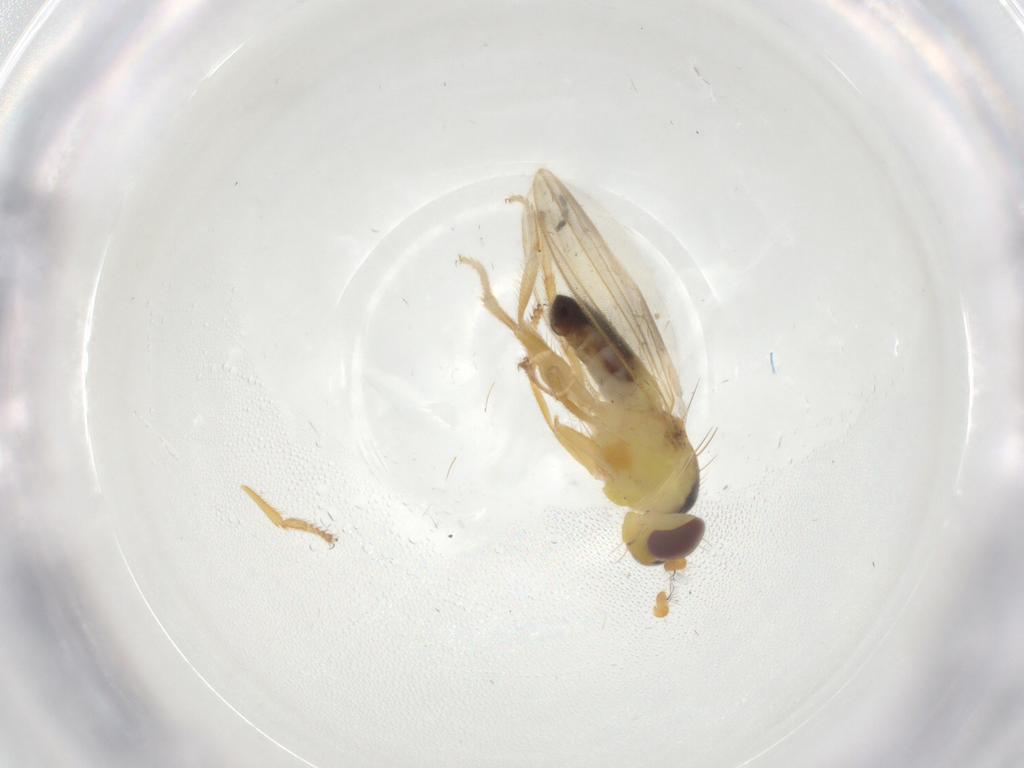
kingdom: Animalia
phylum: Arthropoda
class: Insecta
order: Diptera
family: Periscelididae
